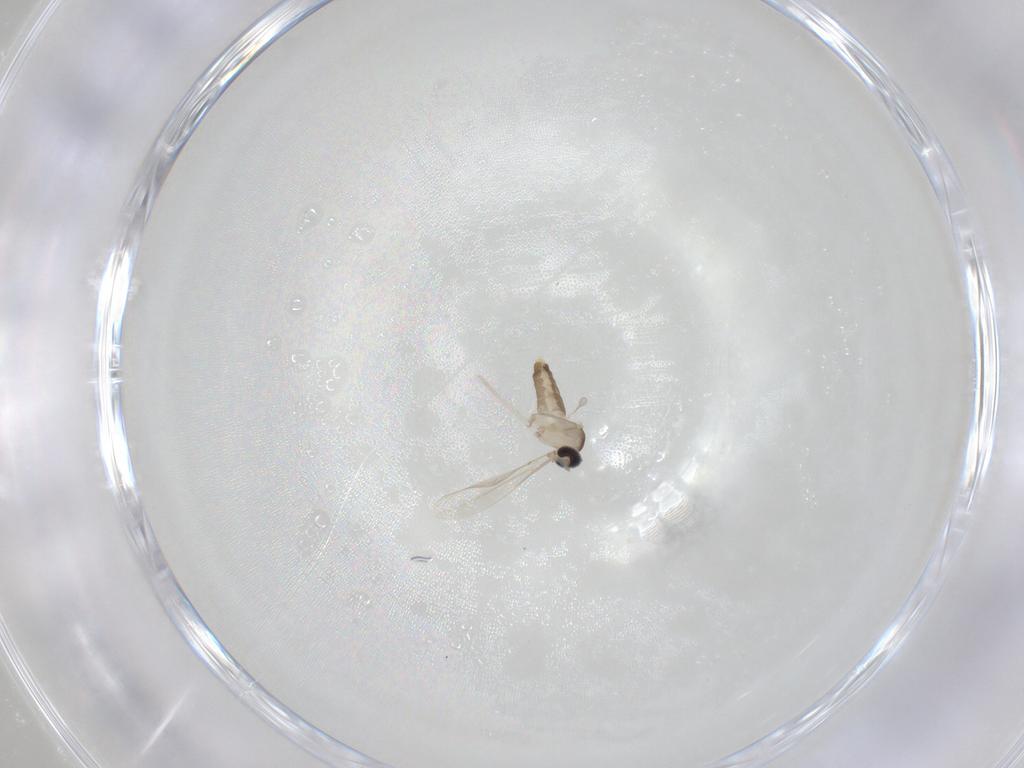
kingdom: Animalia
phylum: Arthropoda
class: Insecta
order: Diptera
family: Cecidomyiidae
